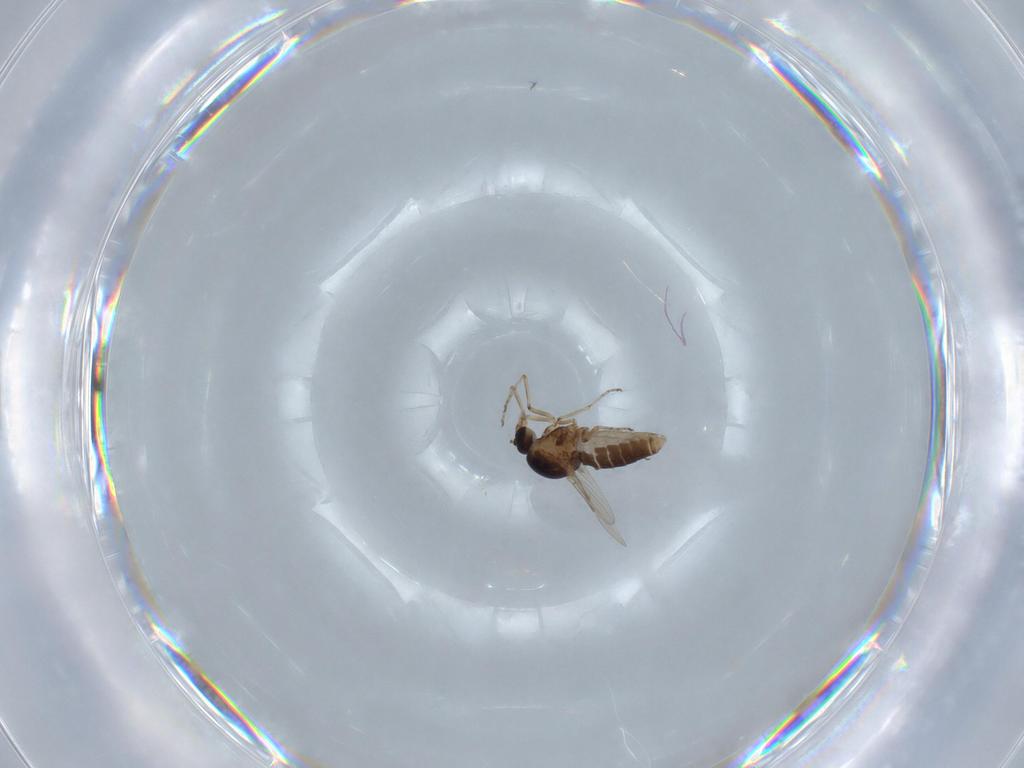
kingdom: Animalia
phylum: Arthropoda
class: Insecta
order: Diptera
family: Ceratopogonidae
